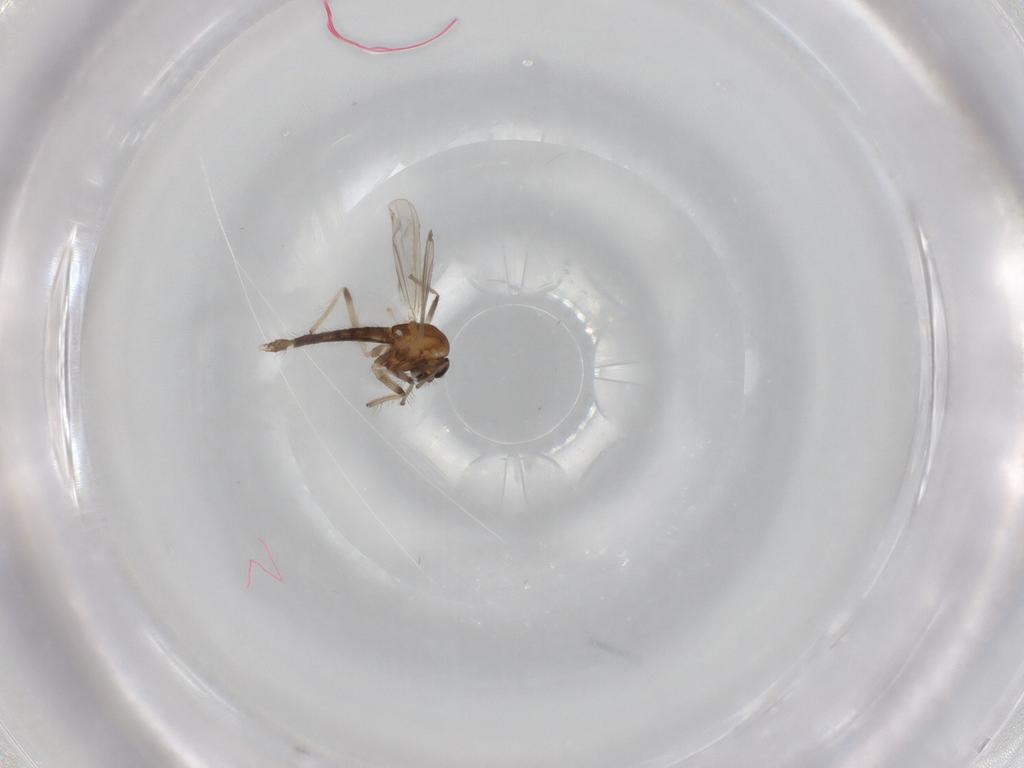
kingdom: Animalia
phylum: Arthropoda
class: Insecta
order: Diptera
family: Chironomidae
